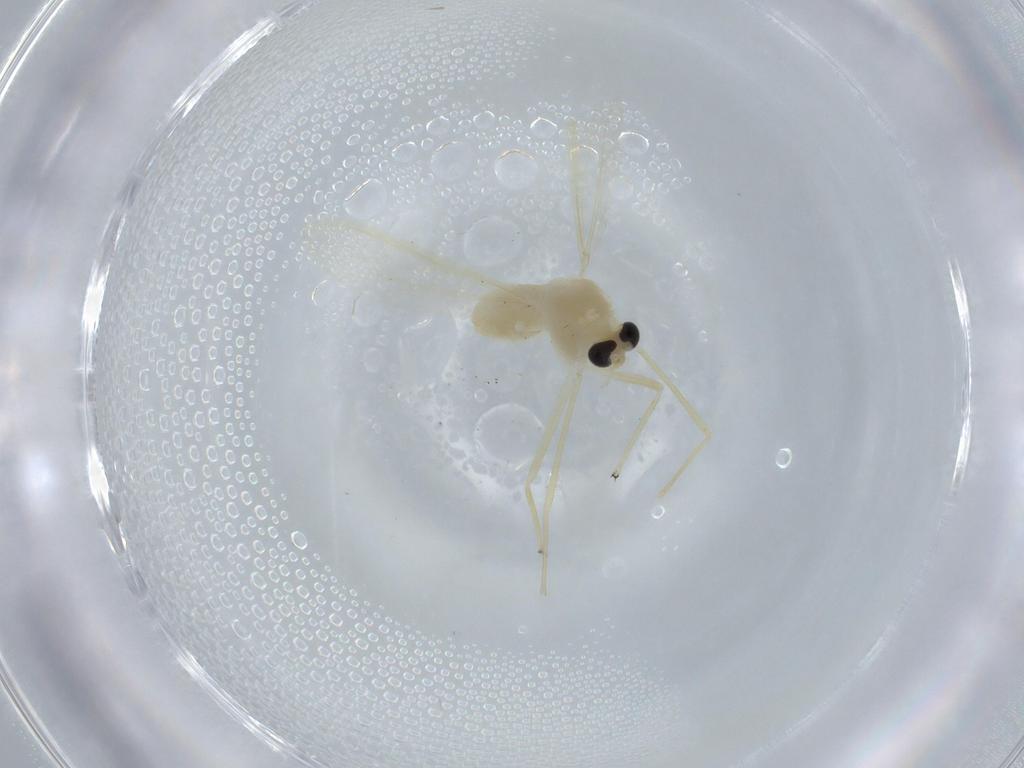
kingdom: Animalia
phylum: Arthropoda
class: Insecta
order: Diptera
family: Chironomidae
